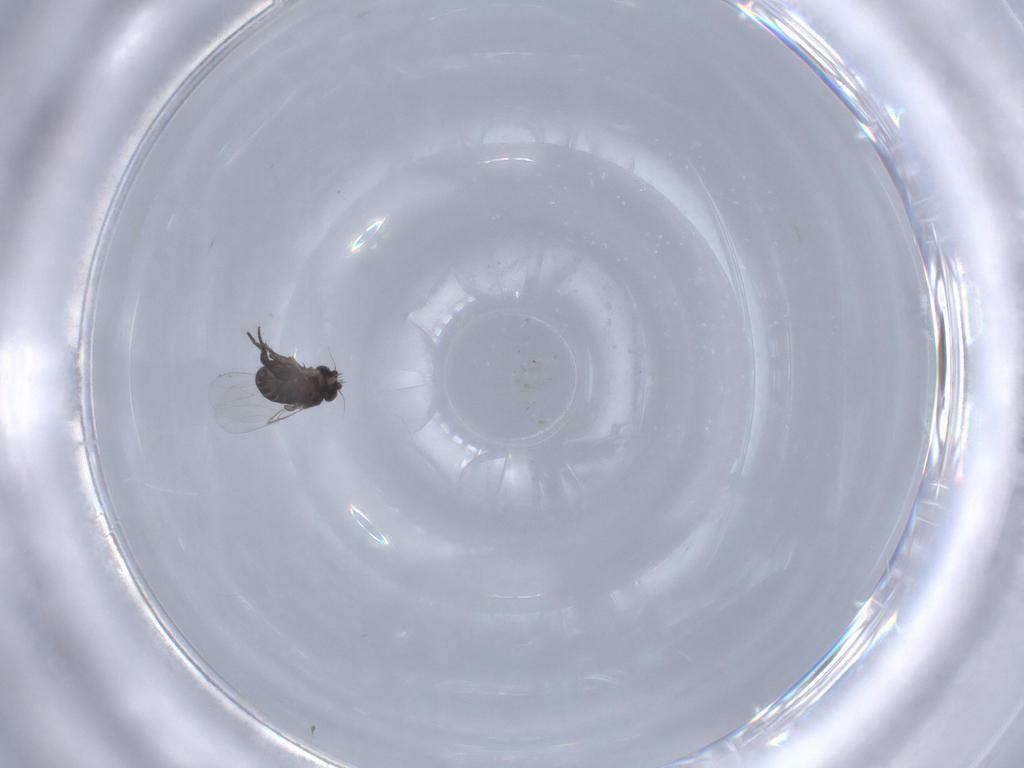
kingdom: Animalia
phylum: Arthropoda
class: Insecta
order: Diptera
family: Phoridae
